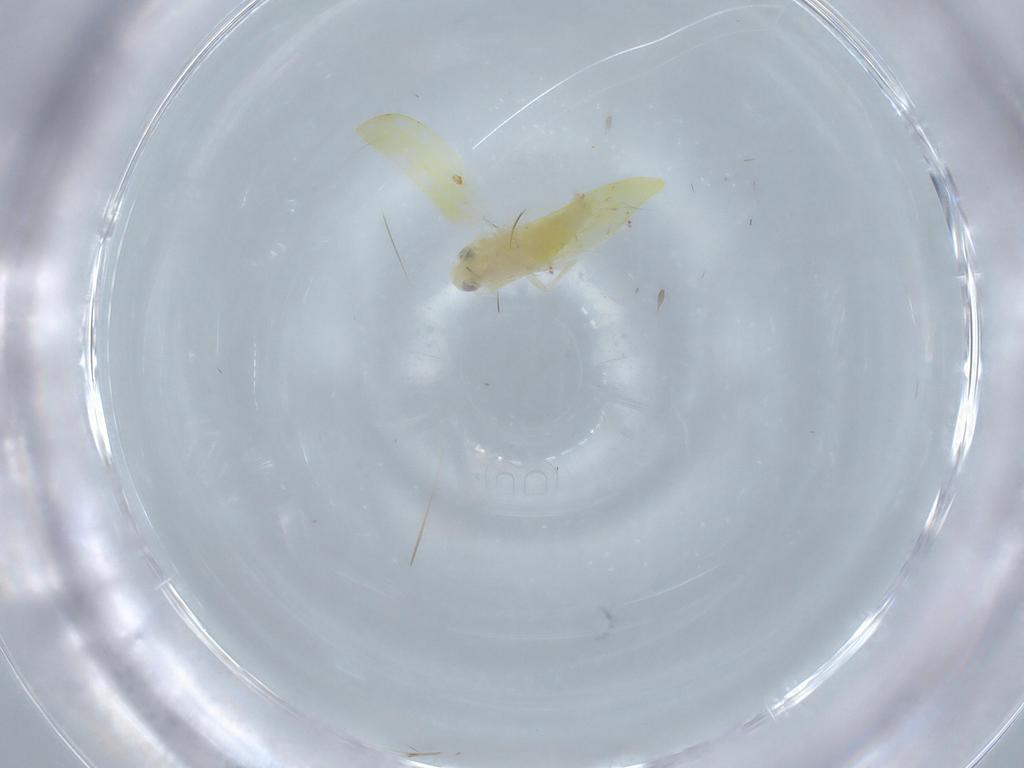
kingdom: Animalia
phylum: Arthropoda
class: Insecta
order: Hemiptera
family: Cicadellidae
